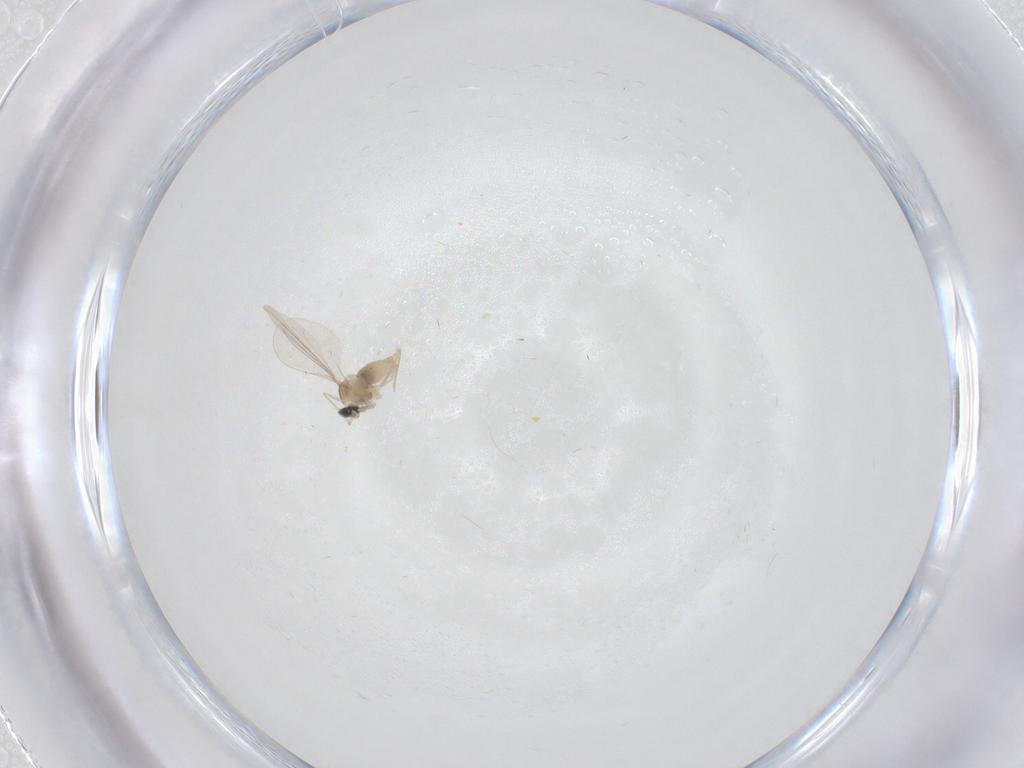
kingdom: Animalia
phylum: Arthropoda
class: Insecta
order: Diptera
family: Cecidomyiidae
